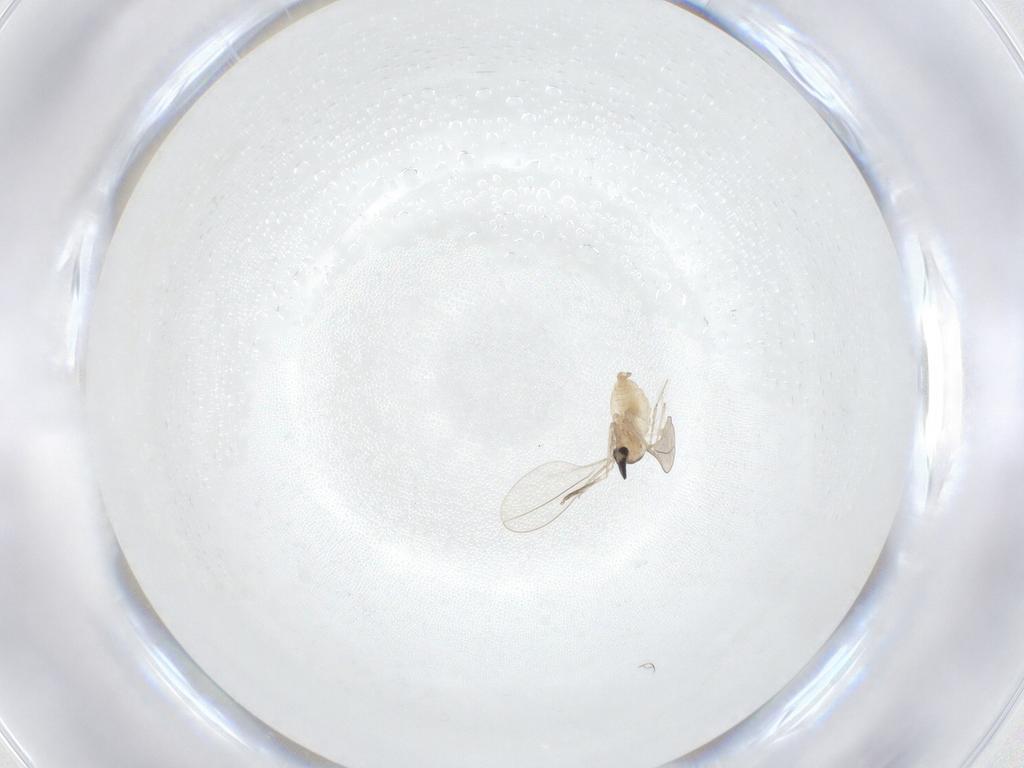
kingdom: Animalia
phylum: Arthropoda
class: Insecta
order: Diptera
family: Cecidomyiidae
